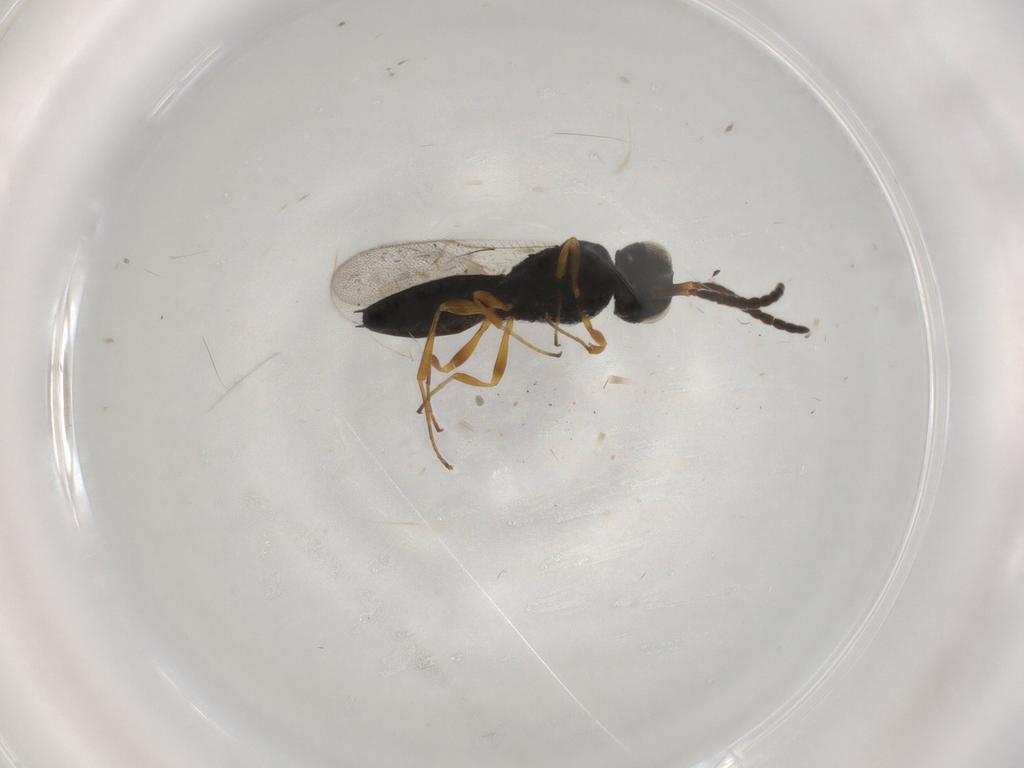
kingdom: Animalia
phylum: Arthropoda
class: Insecta
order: Hymenoptera
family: Scelionidae
